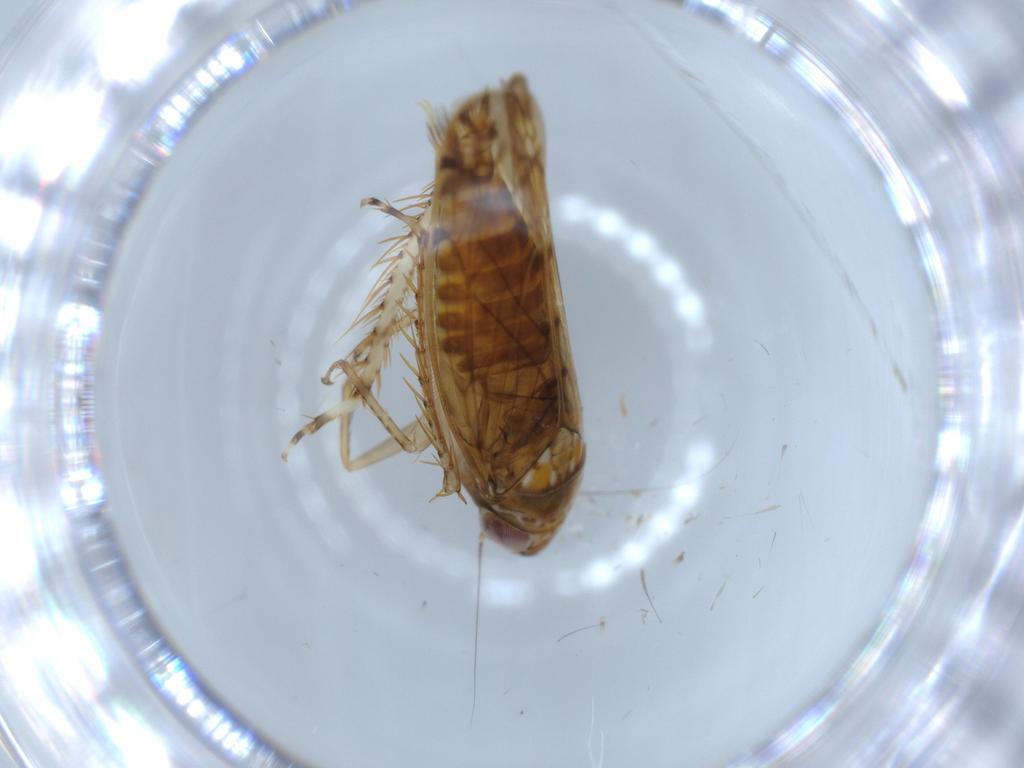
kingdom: Animalia
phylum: Arthropoda
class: Insecta
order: Hemiptera
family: Cicadellidae
